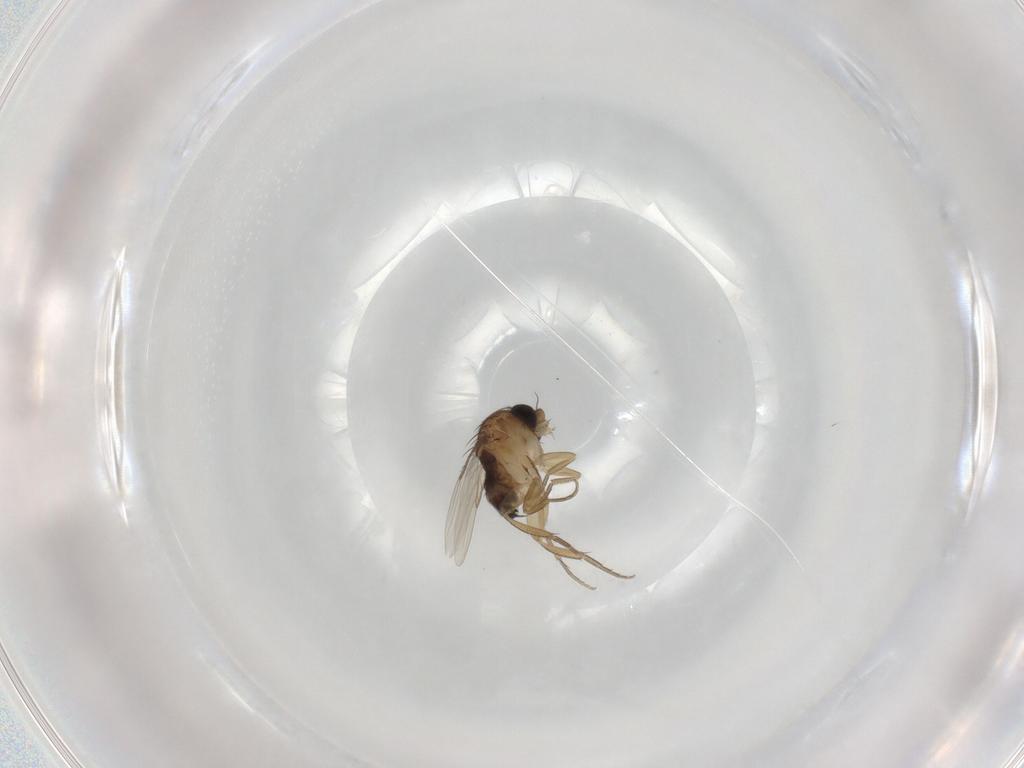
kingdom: Animalia
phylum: Arthropoda
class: Insecta
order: Diptera
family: Phoridae
